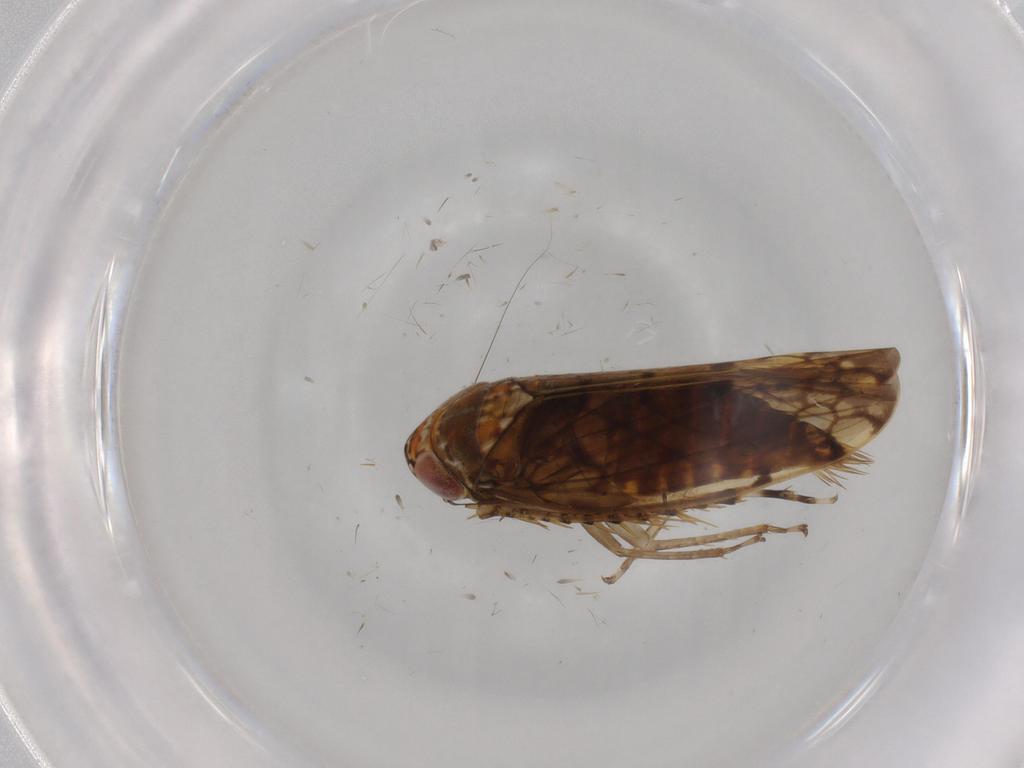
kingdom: Animalia
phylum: Arthropoda
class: Insecta
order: Hemiptera
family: Cicadellidae
